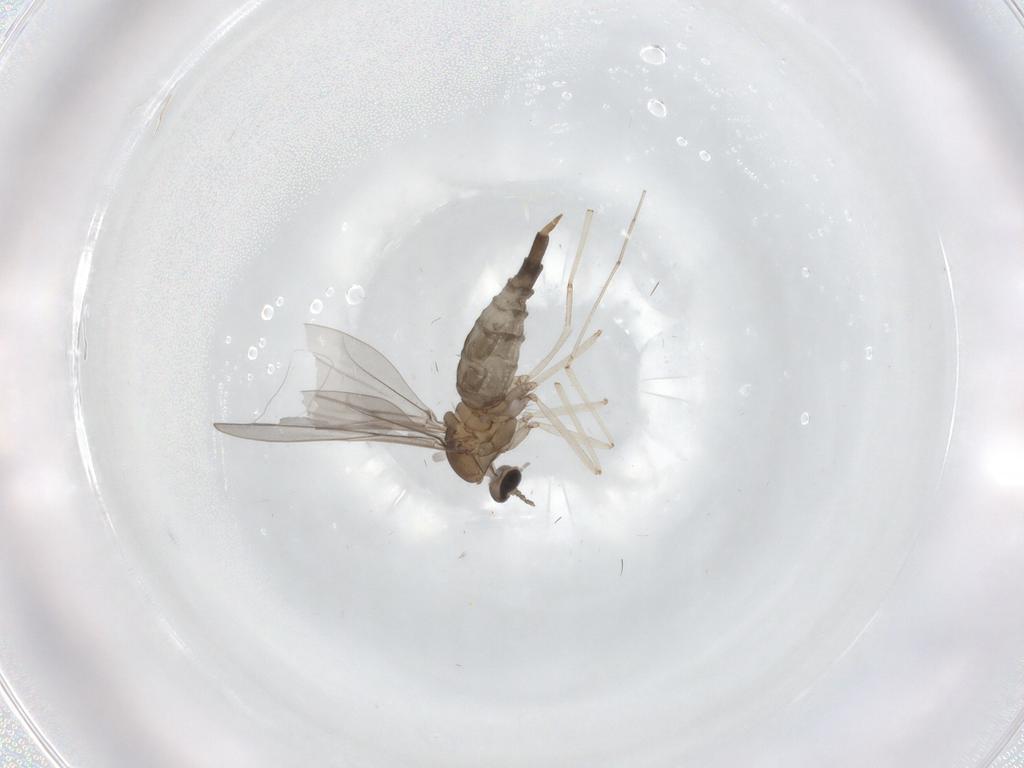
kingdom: Animalia
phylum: Arthropoda
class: Insecta
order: Diptera
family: Cecidomyiidae
